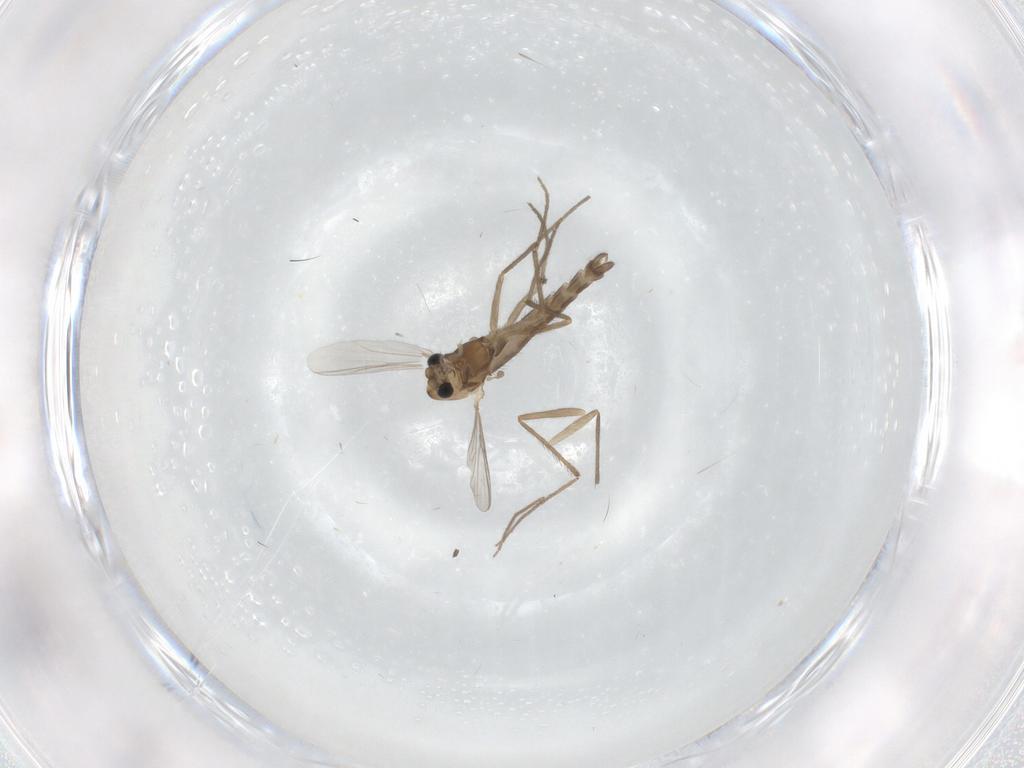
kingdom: Animalia
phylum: Arthropoda
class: Insecta
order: Diptera
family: Chironomidae
